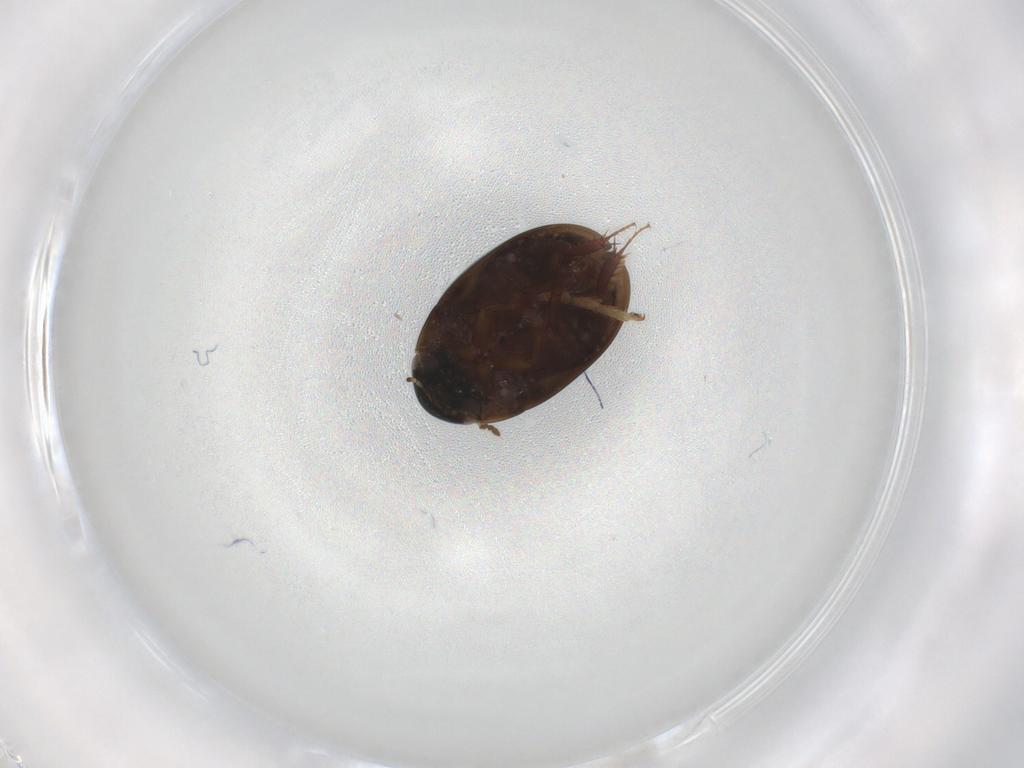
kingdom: Animalia
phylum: Arthropoda
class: Insecta
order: Coleoptera
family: Hydrophilidae
